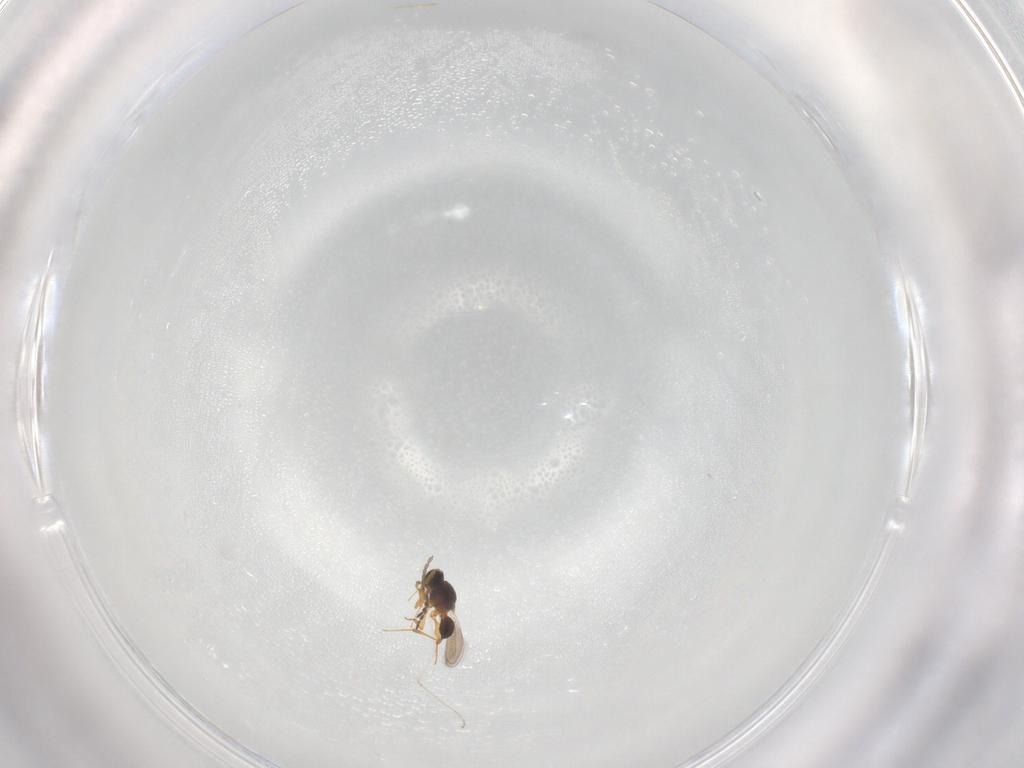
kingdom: Animalia
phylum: Arthropoda
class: Insecta
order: Hymenoptera
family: Platygastridae
